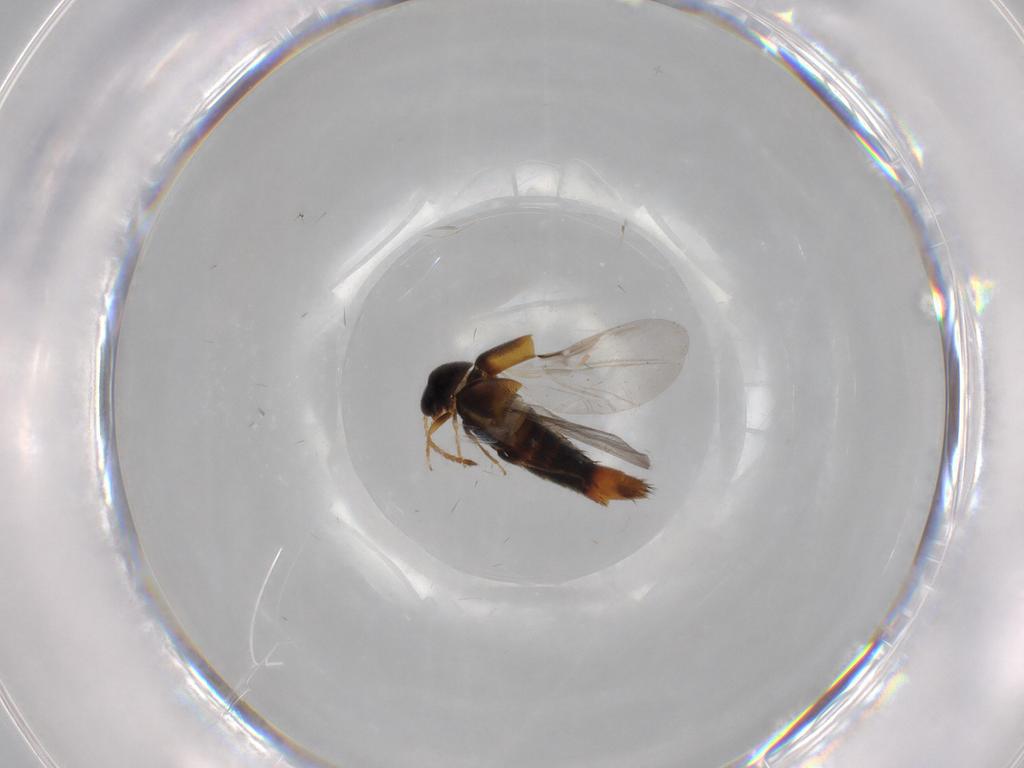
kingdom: Animalia
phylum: Arthropoda
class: Insecta
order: Coleoptera
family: Staphylinidae
